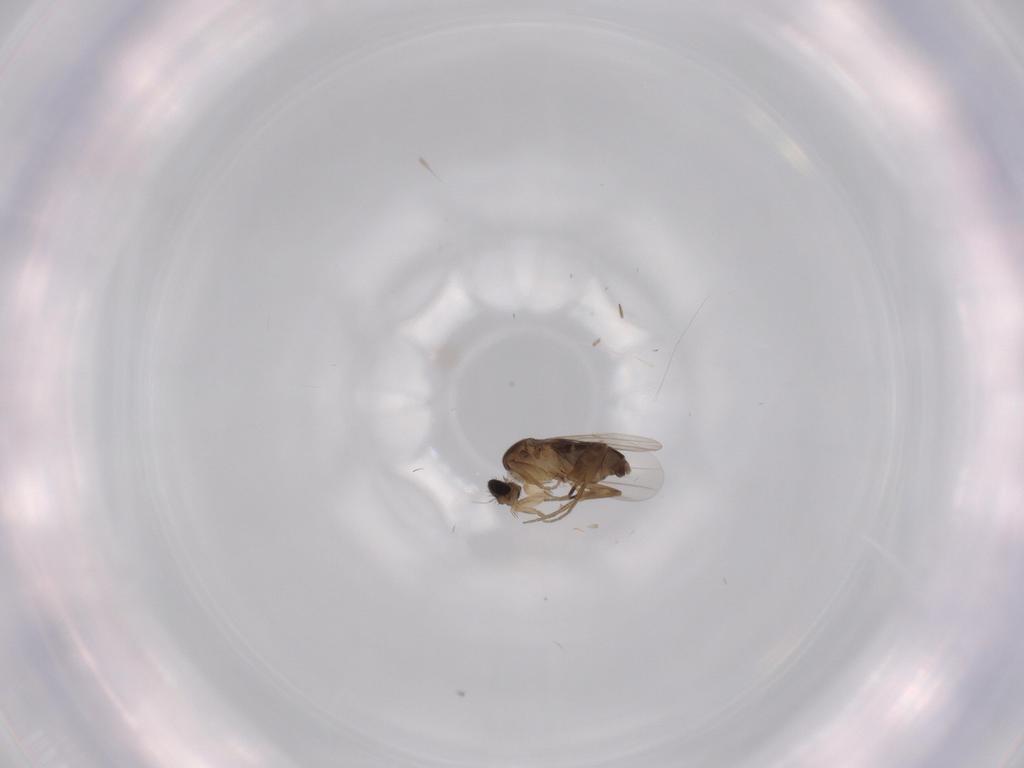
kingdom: Animalia
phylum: Arthropoda
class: Insecta
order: Diptera
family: Phoridae
